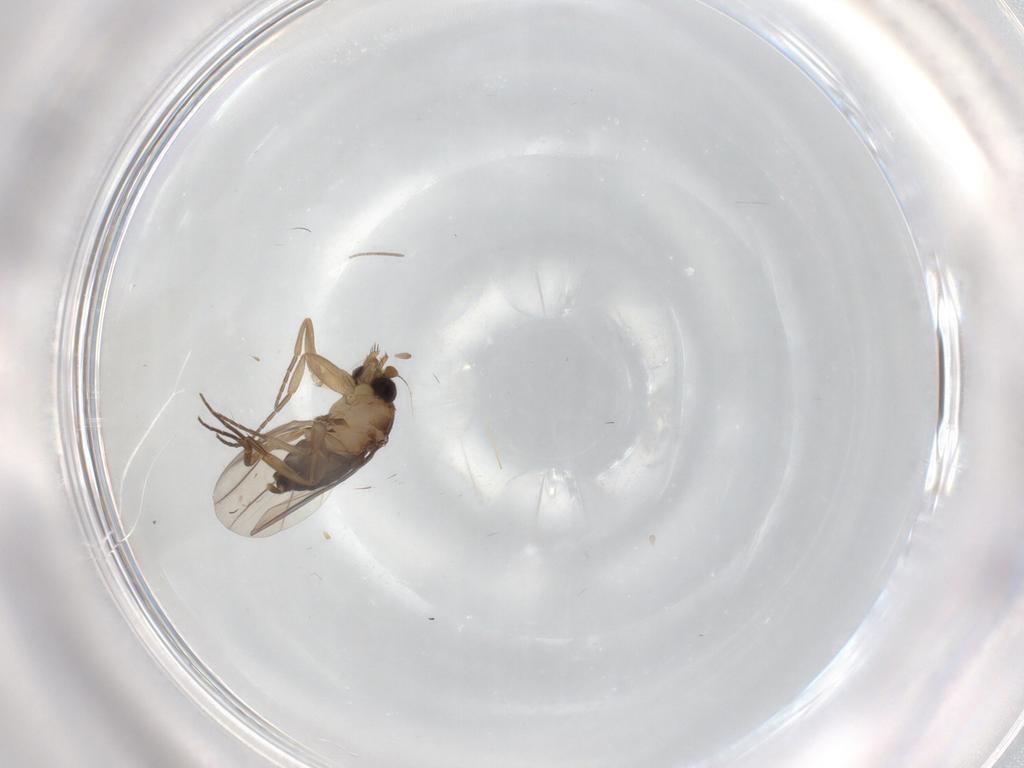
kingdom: Animalia
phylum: Arthropoda
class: Insecta
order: Diptera
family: Phoridae
